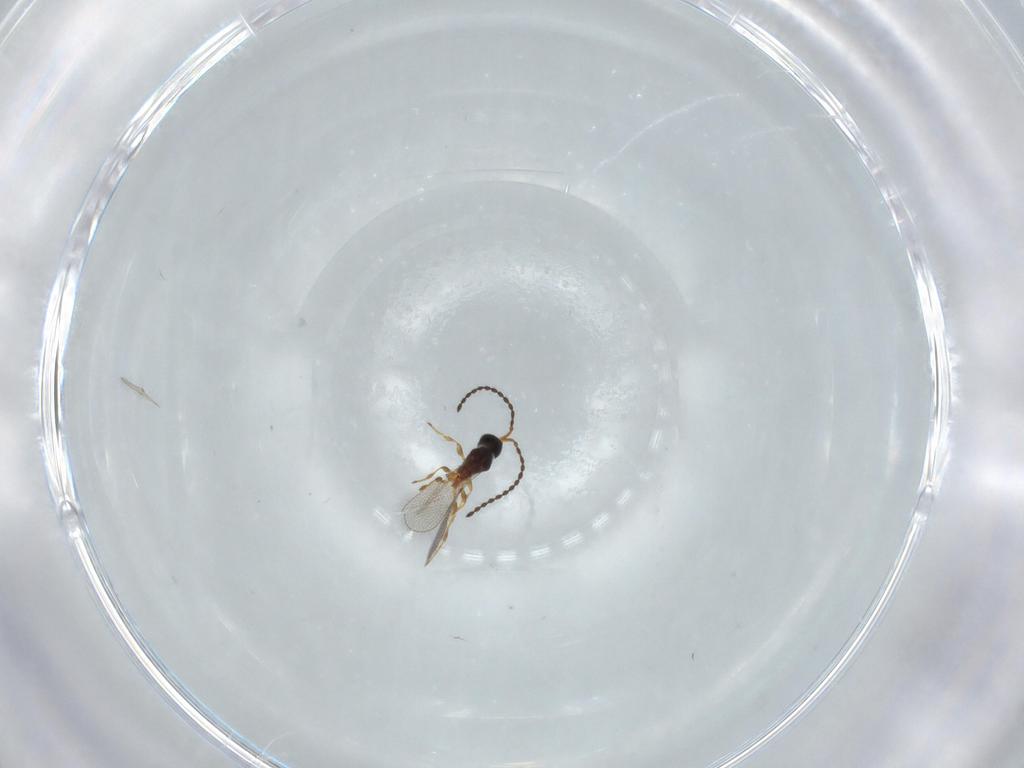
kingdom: Animalia
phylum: Arthropoda
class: Insecta
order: Hymenoptera
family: Diapriidae
